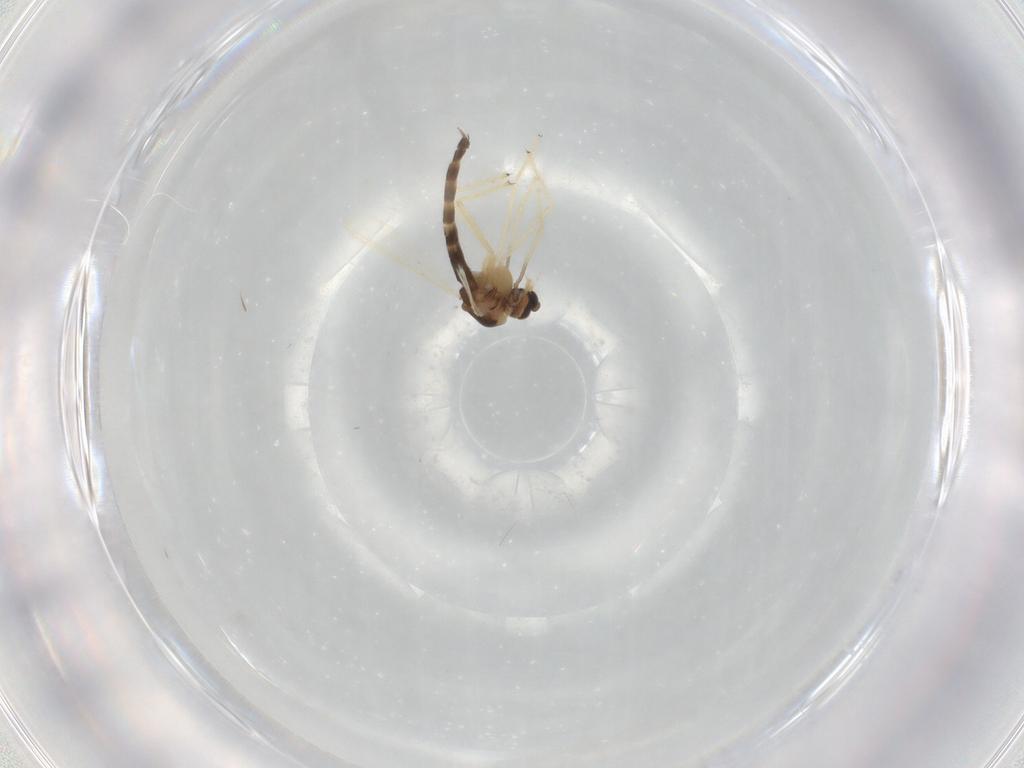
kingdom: Animalia
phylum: Arthropoda
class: Insecta
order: Diptera
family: Chironomidae
